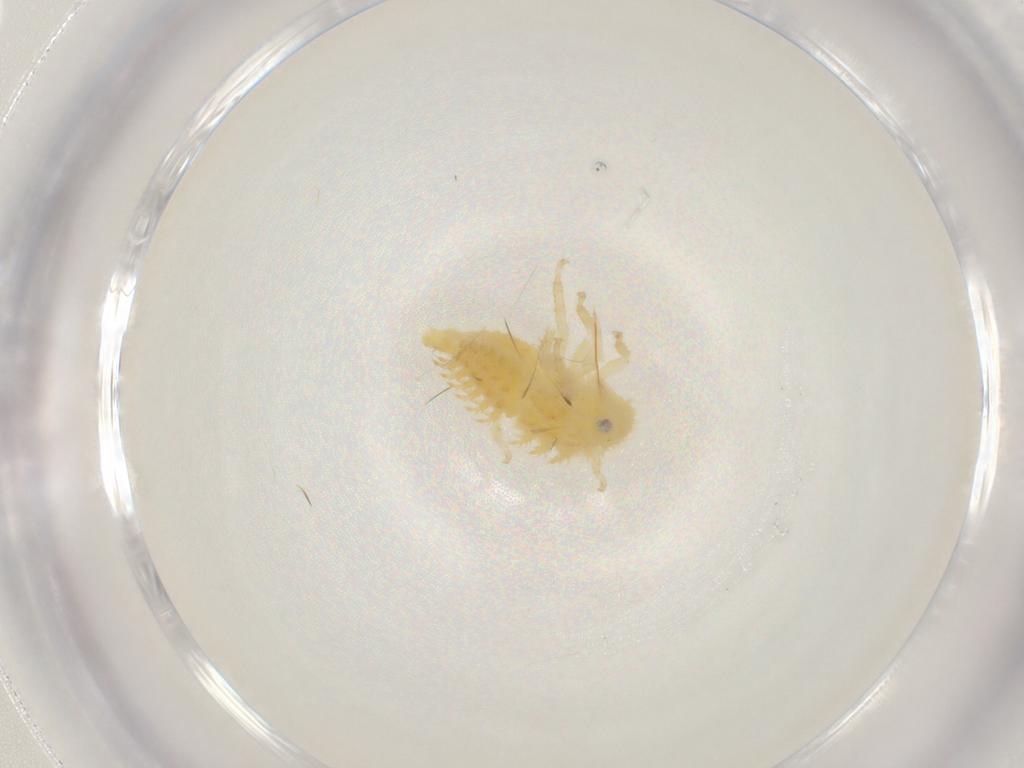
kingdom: Animalia
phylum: Arthropoda
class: Insecta
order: Hemiptera
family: Membracidae
